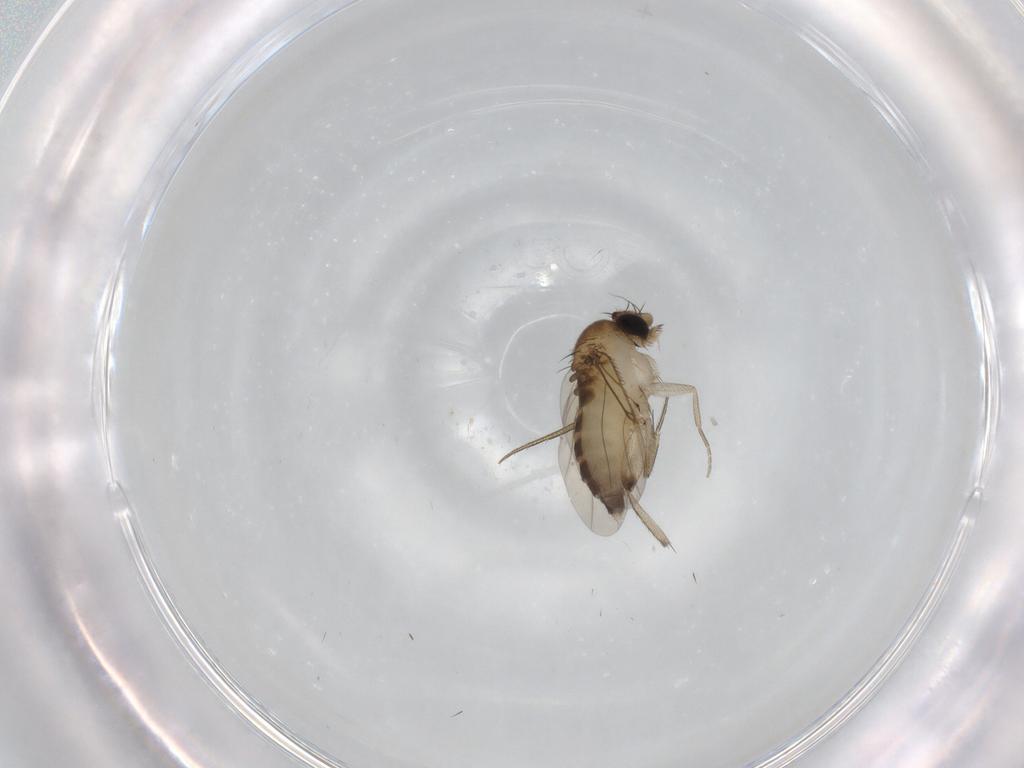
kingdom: Animalia
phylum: Arthropoda
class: Insecta
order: Diptera
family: Phoridae
